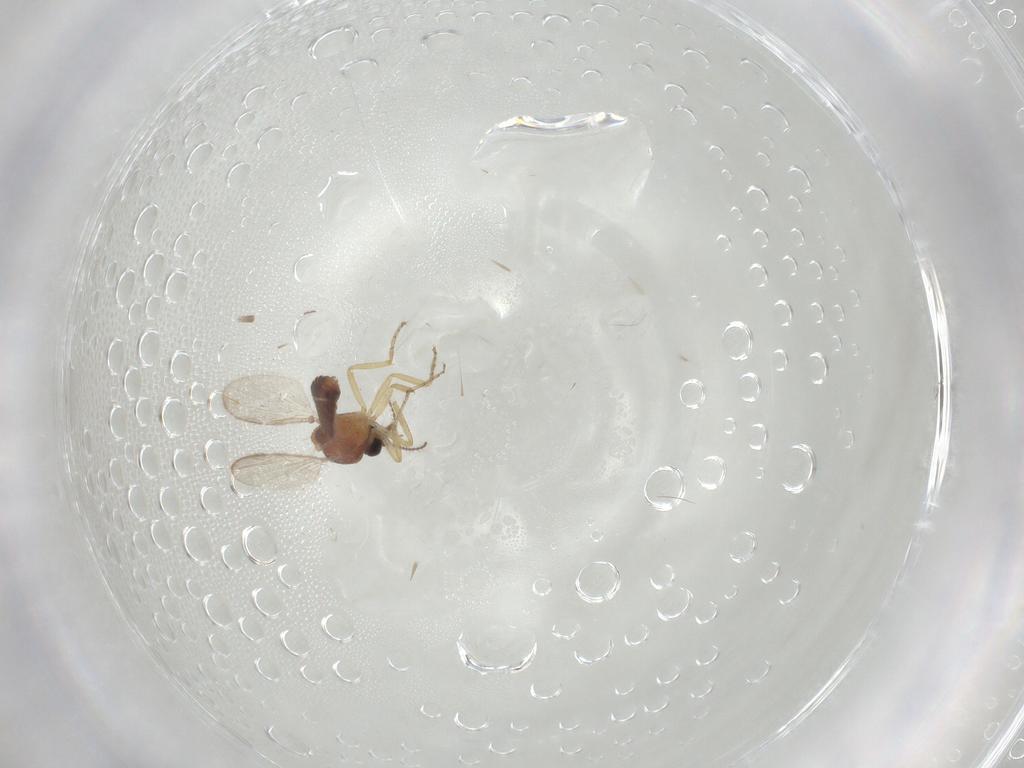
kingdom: Animalia
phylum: Arthropoda
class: Insecta
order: Diptera
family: Ceratopogonidae
